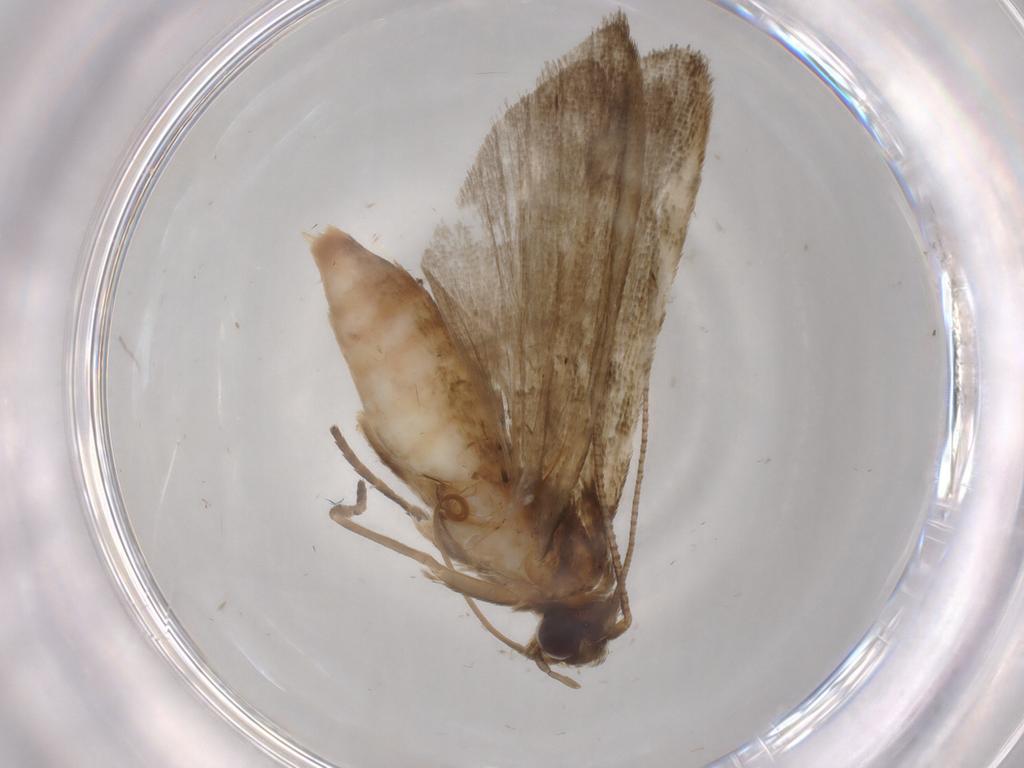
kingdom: Animalia
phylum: Arthropoda
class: Insecta
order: Lepidoptera
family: Noctuidae
